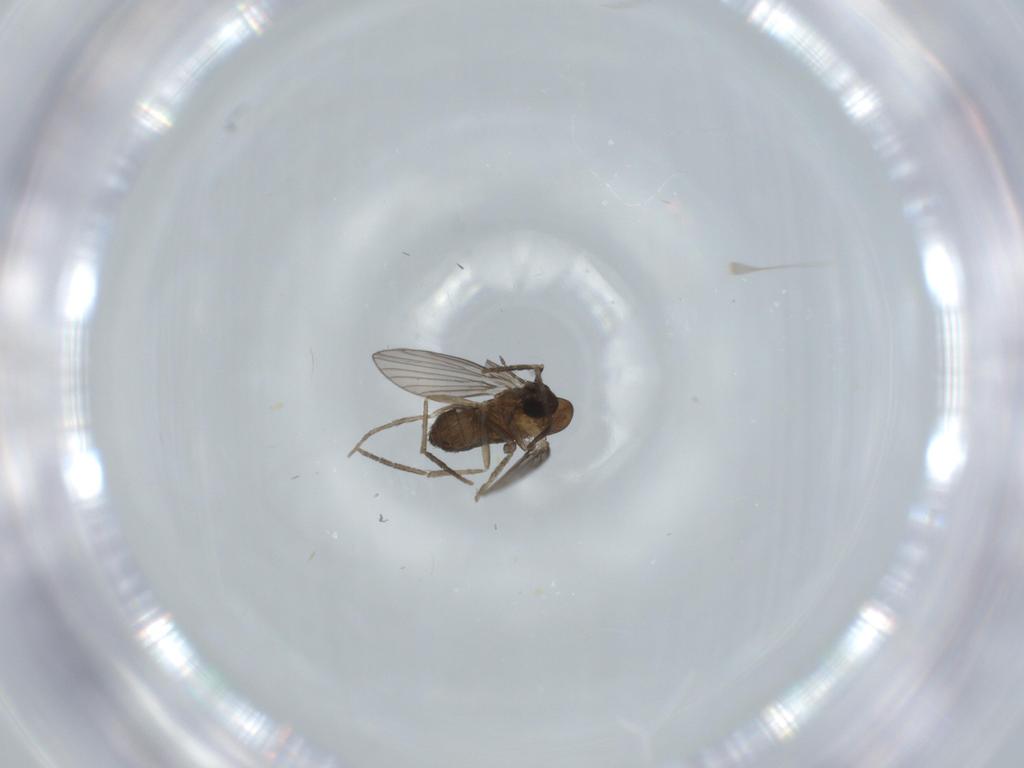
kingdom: Animalia
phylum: Arthropoda
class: Insecta
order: Diptera
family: Psychodidae
